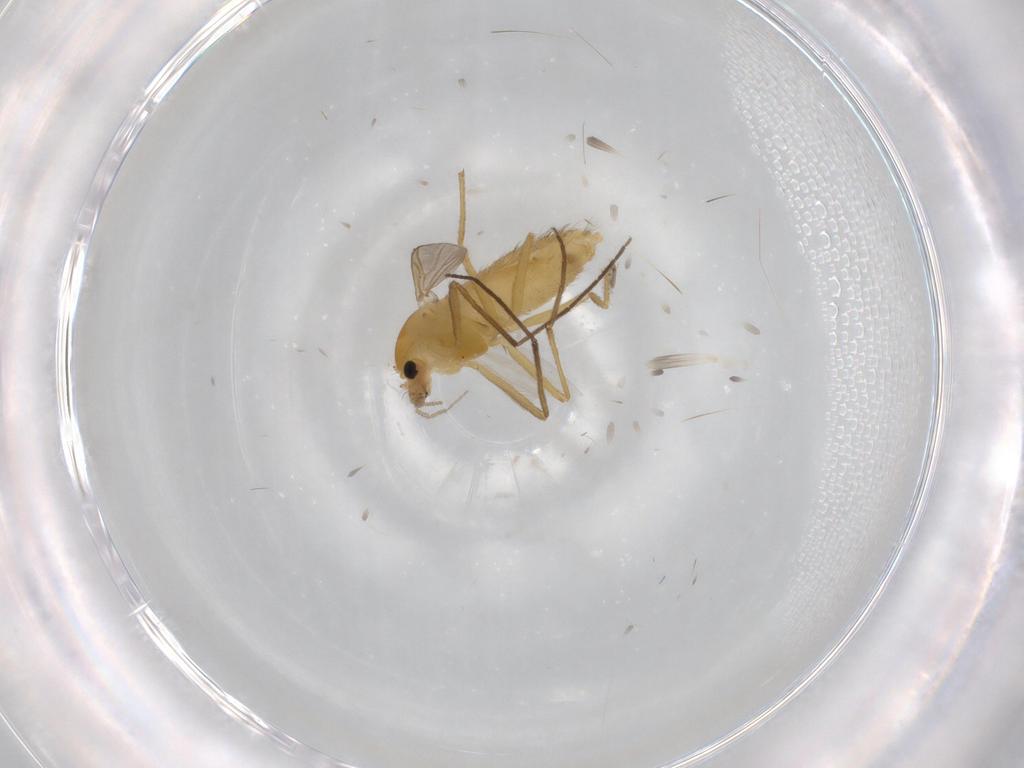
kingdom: Animalia
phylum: Arthropoda
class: Insecta
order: Diptera
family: Chironomidae
